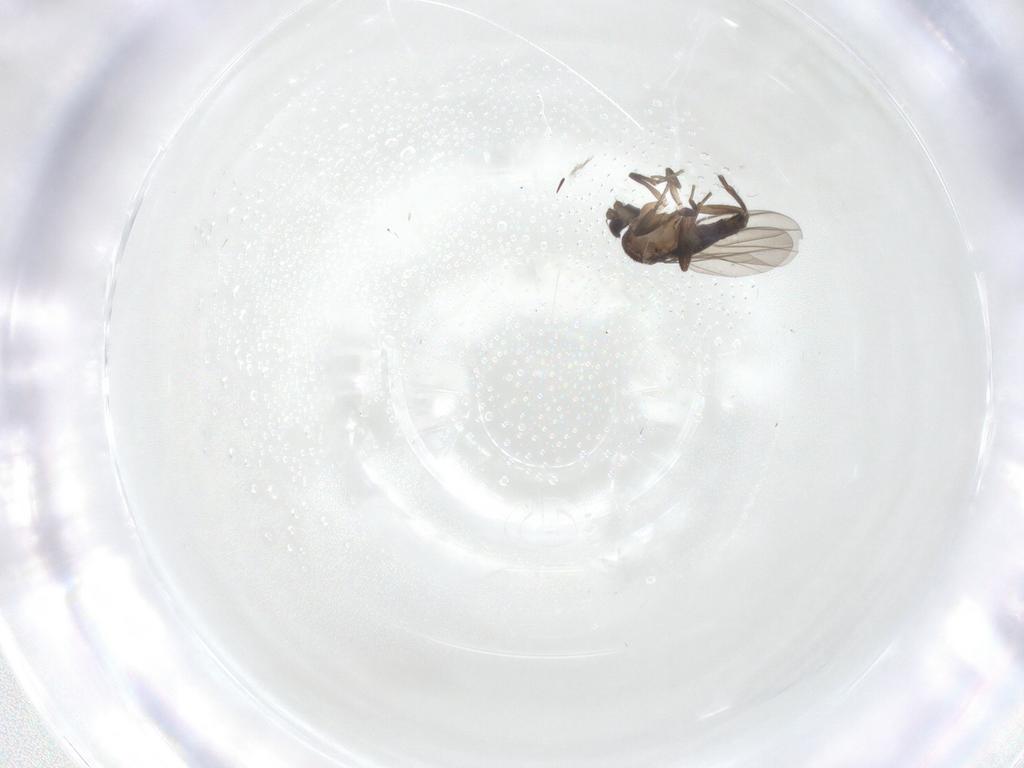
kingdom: Animalia
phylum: Arthropoda
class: Insecta
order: Diptera
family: Phoridae
